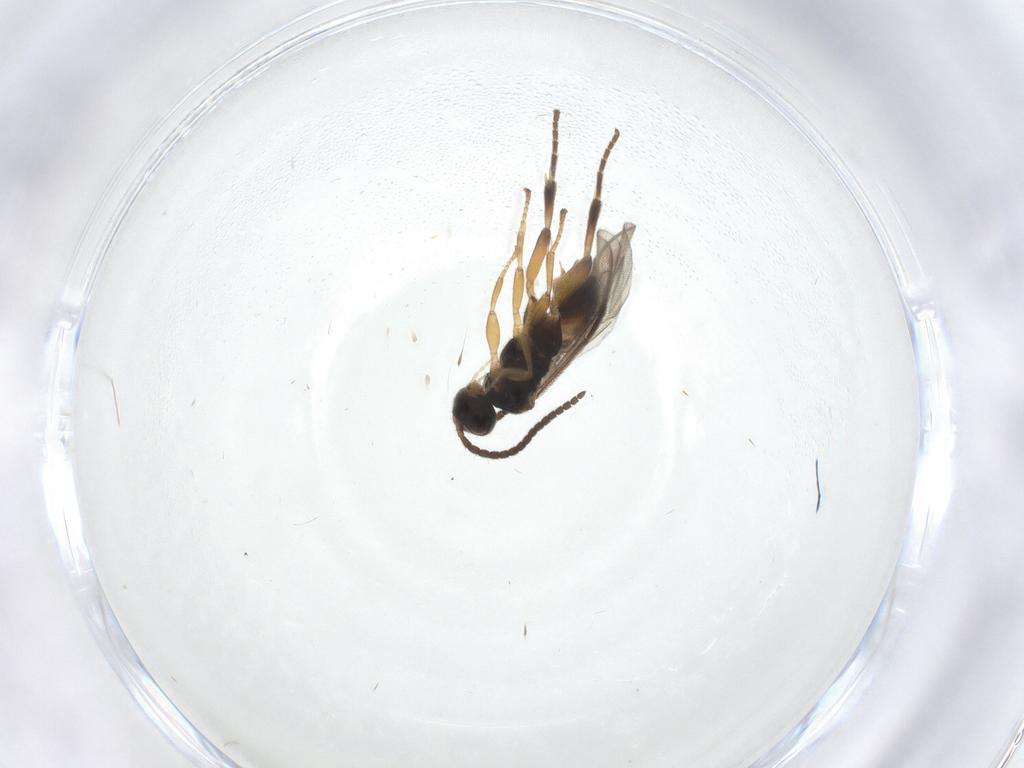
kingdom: Animalia
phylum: Arthropoda
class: Insecta
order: Hymenoptera
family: Braconidae
